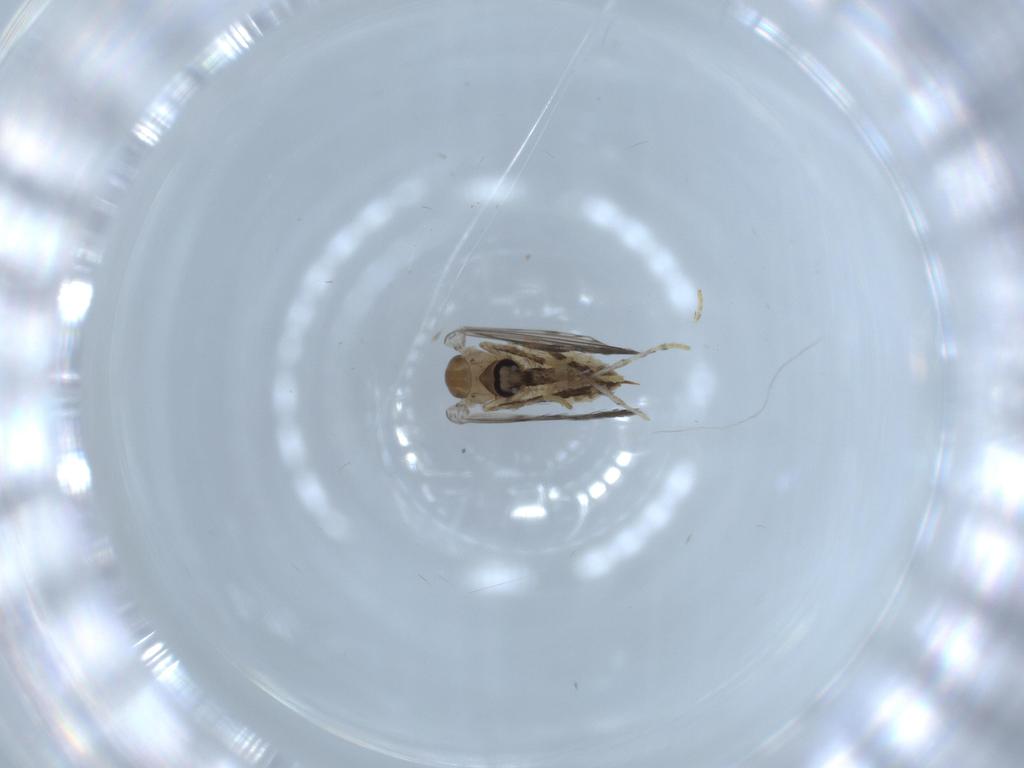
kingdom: Animalia
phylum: Arthropoda
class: Insecta
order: Diptera
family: Psychodidae
